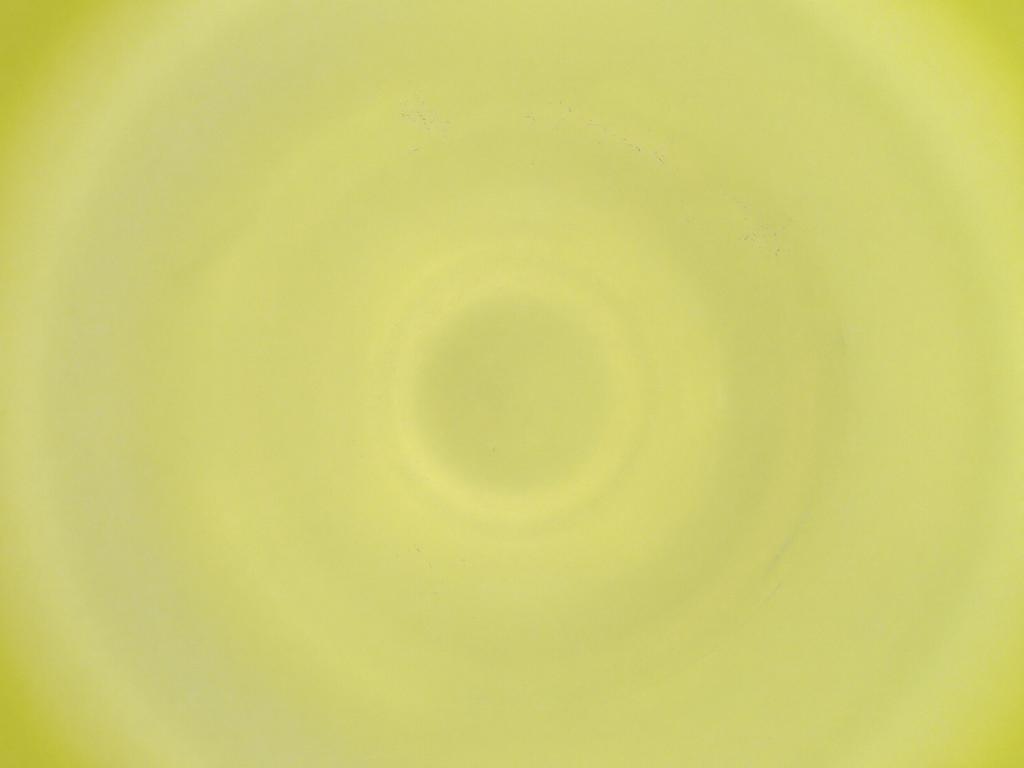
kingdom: Animalia
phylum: Arthropoda
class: Insecta
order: Diptera
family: Cecidomyiidae
